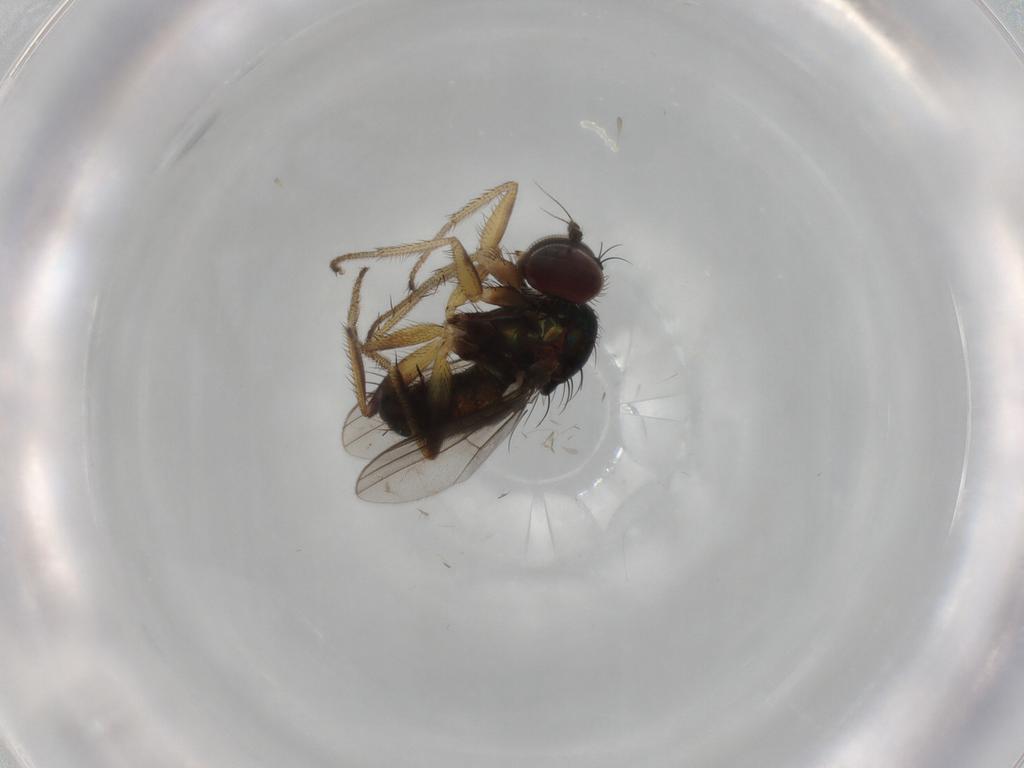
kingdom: Animalia
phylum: Arthropoda
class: Insecta
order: Diptera
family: Dolichopodidae
